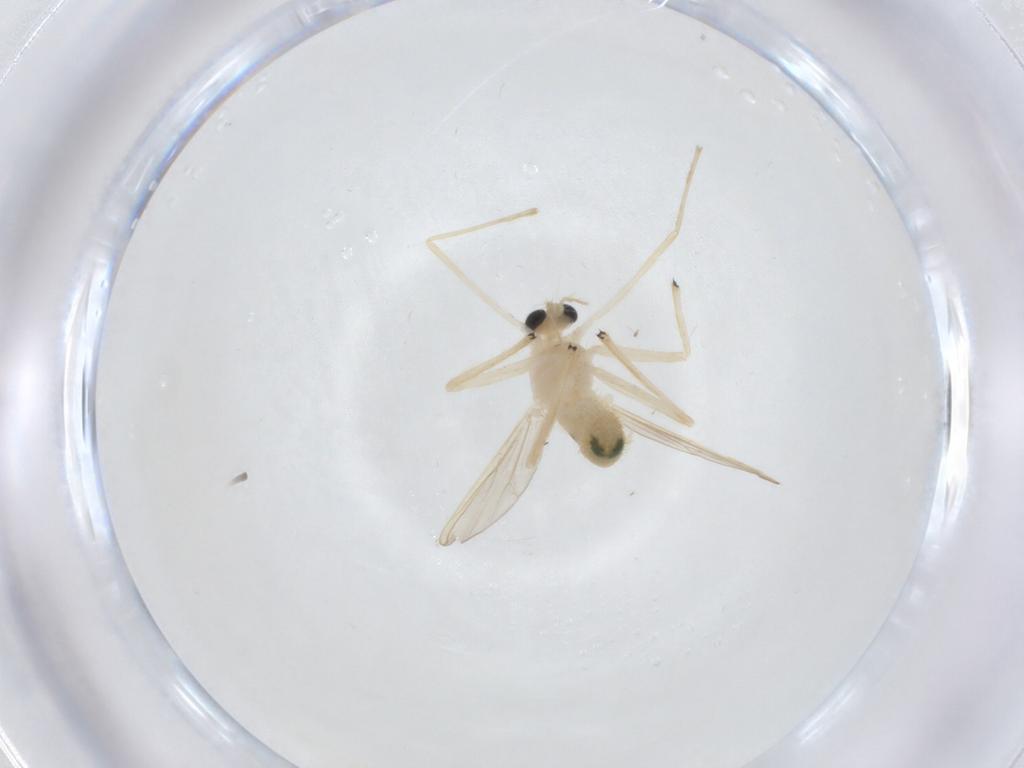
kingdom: Animalia
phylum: Arthropoda
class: Insecta
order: Diptera
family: Chironomidae
